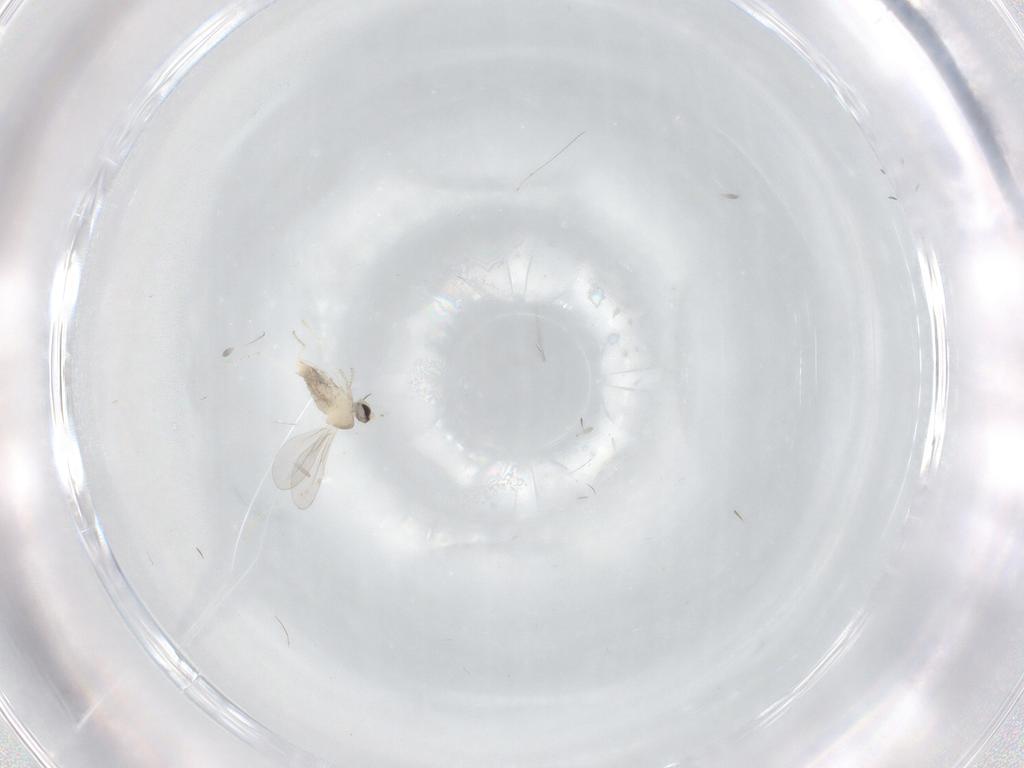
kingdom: Animalia
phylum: Arthropoda
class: Insecta
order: Diptera
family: Cecidomyiidae
